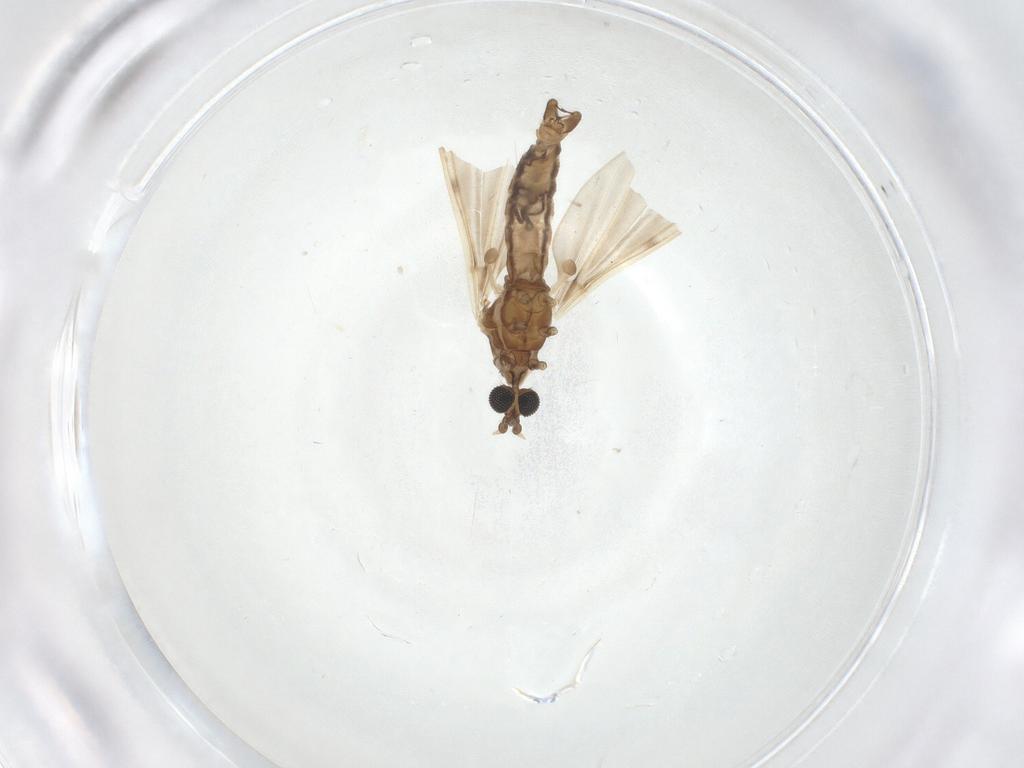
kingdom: Animalia
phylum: Arthropoda
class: Insecta
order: Diptera
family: Limoniidae
